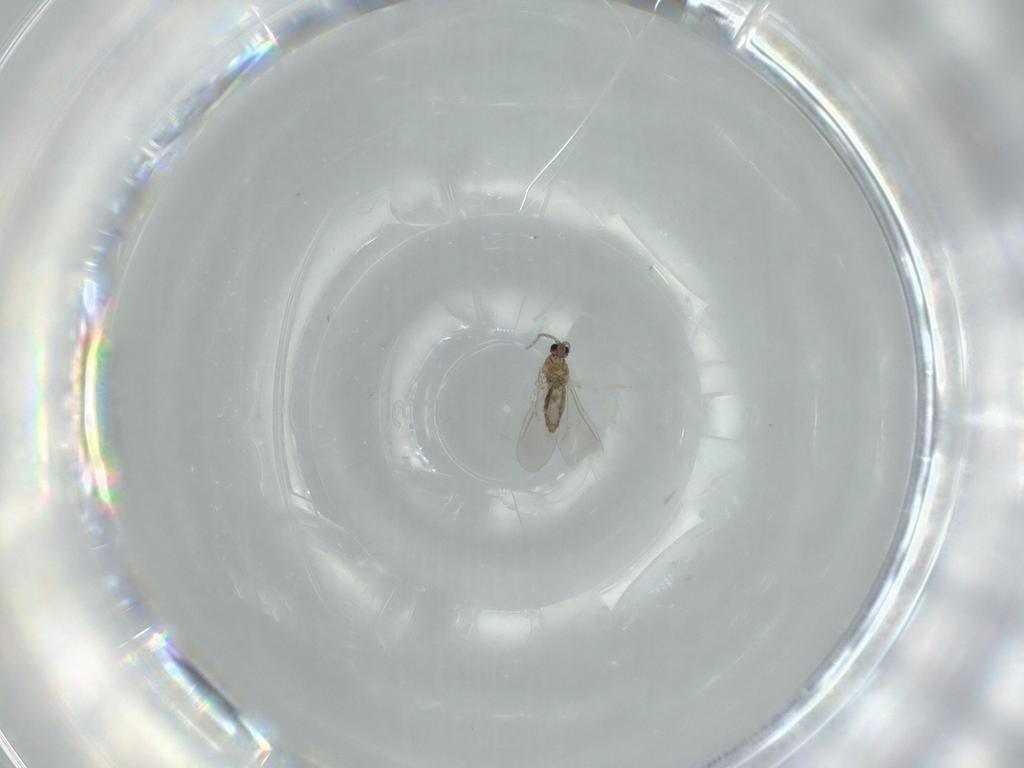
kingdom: Animalia
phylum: Arthropoda
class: Insecta
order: Diptera
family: Cecidomyiidae
